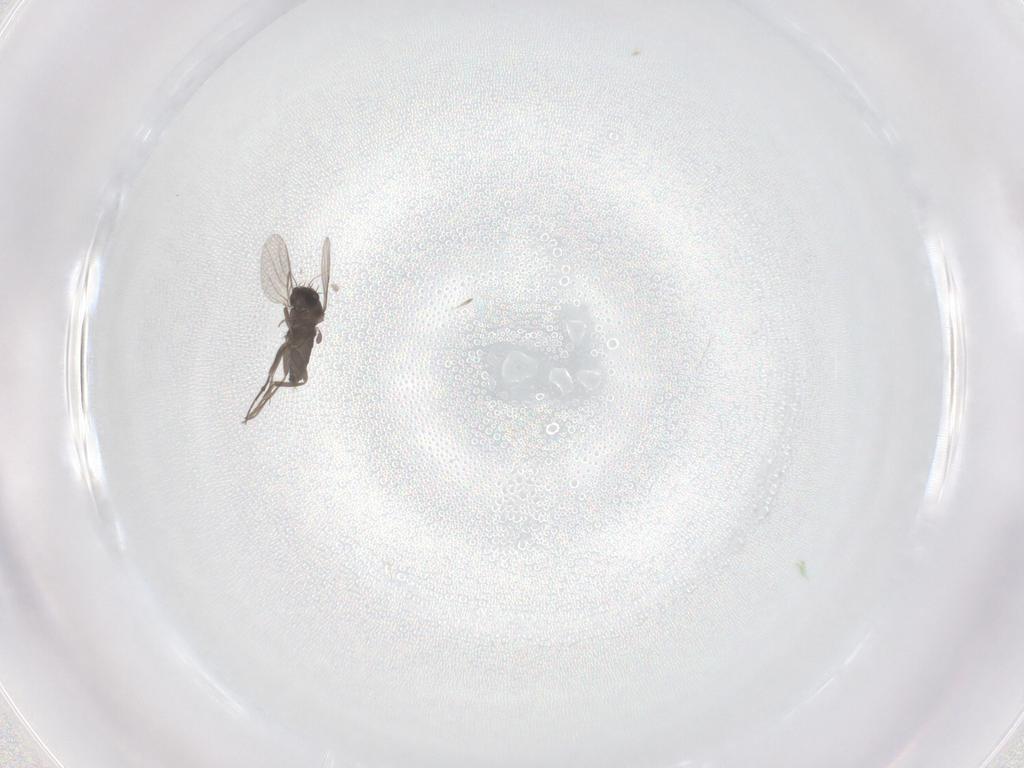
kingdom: Animalia
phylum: Arthropoda
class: Insecta
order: Diptera
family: Phoridae
